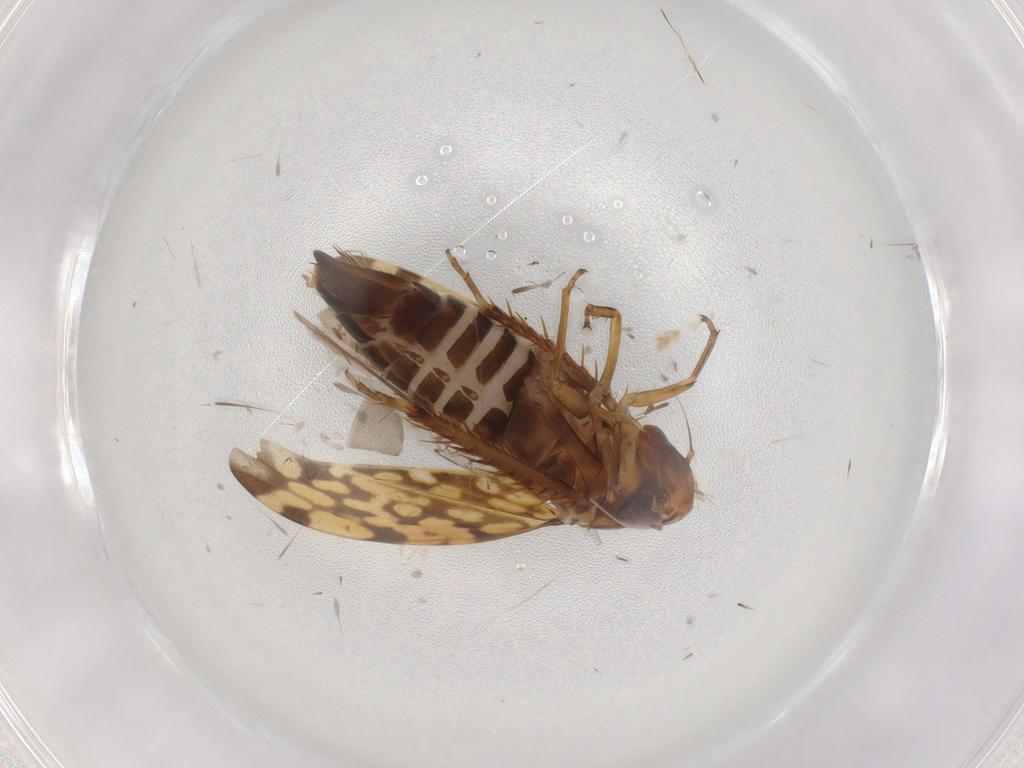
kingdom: Animalia
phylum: Arthropoda
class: Insecta
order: Hemiptera
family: Cicadellidae
